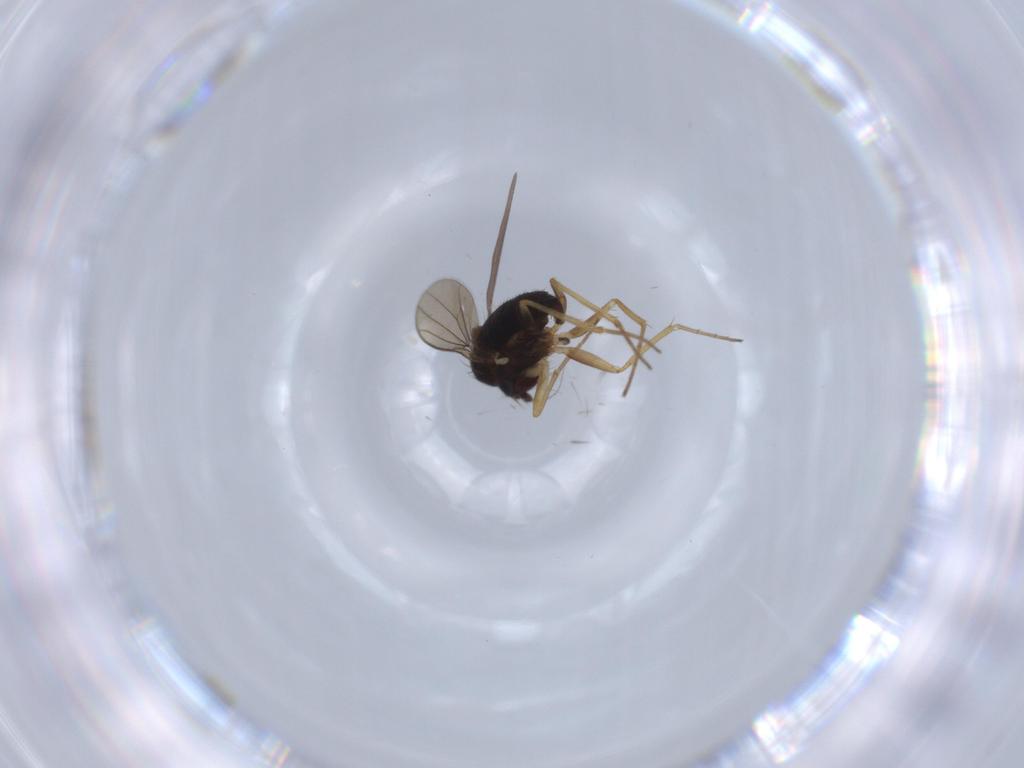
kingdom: Animalia
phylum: Arthropoda
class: Insecta
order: Diptera
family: Dolichopodidae
